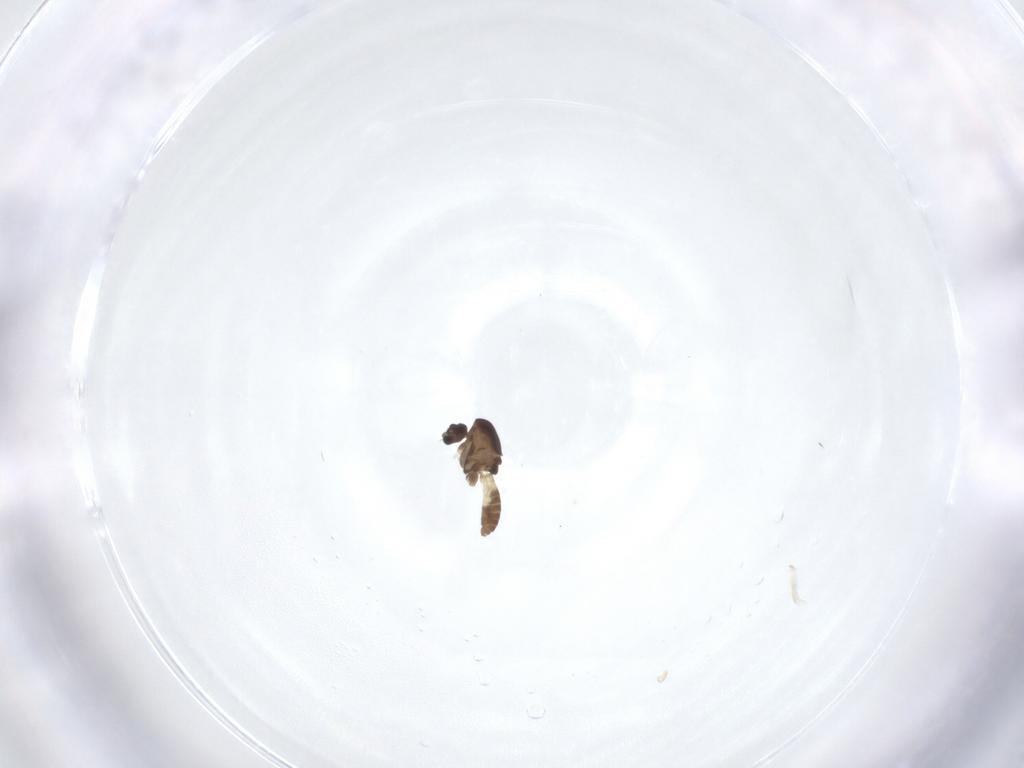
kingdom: Animalia
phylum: Arthropoda
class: Insecta
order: Diptera
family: Chironomidae
